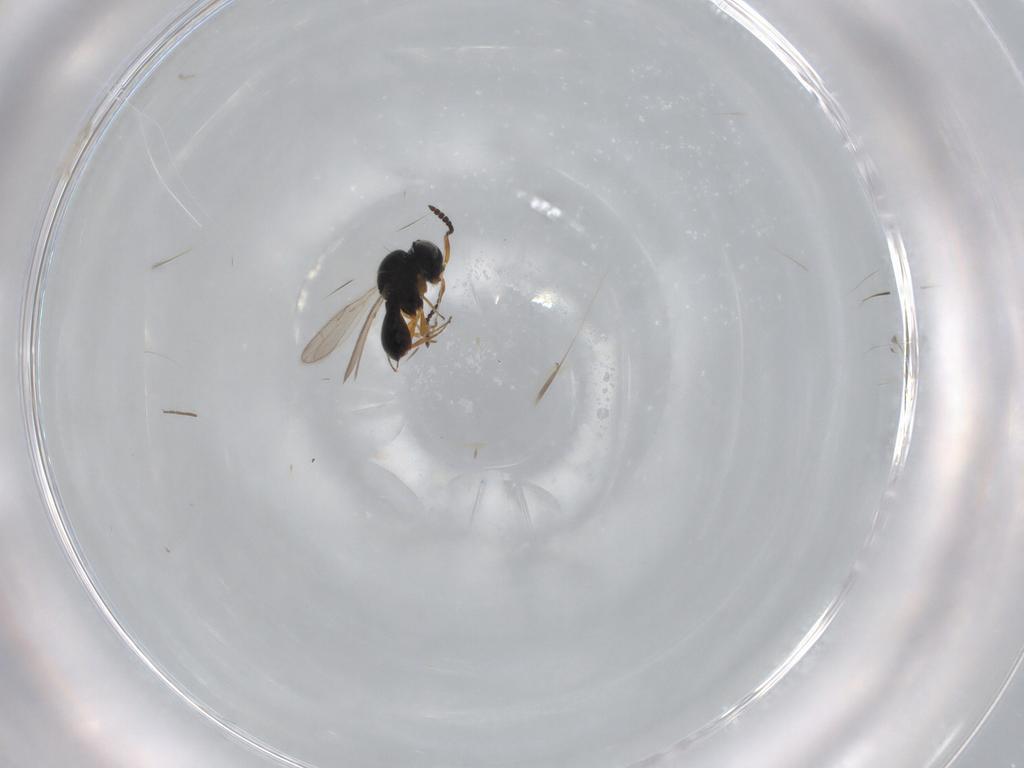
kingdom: Animalia
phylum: Arthropoda
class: Insecta
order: Hymenoptera
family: Scelionidae
